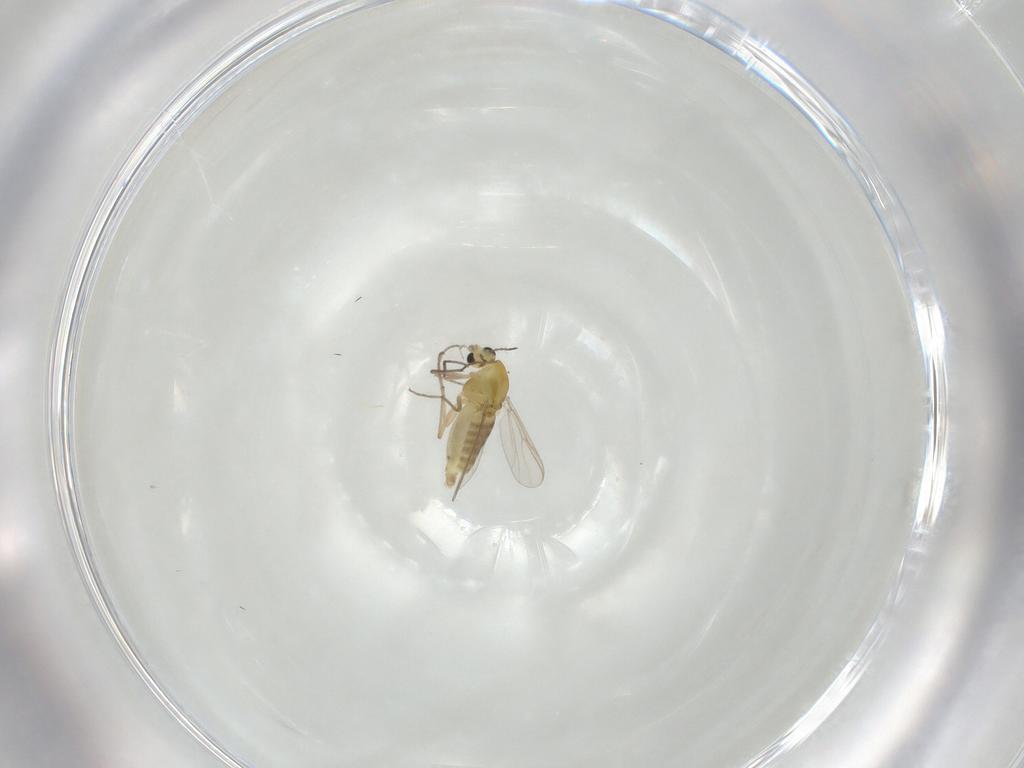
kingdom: Animalia
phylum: Arthropoda
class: Insecta
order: Diptera
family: Chironomidae
